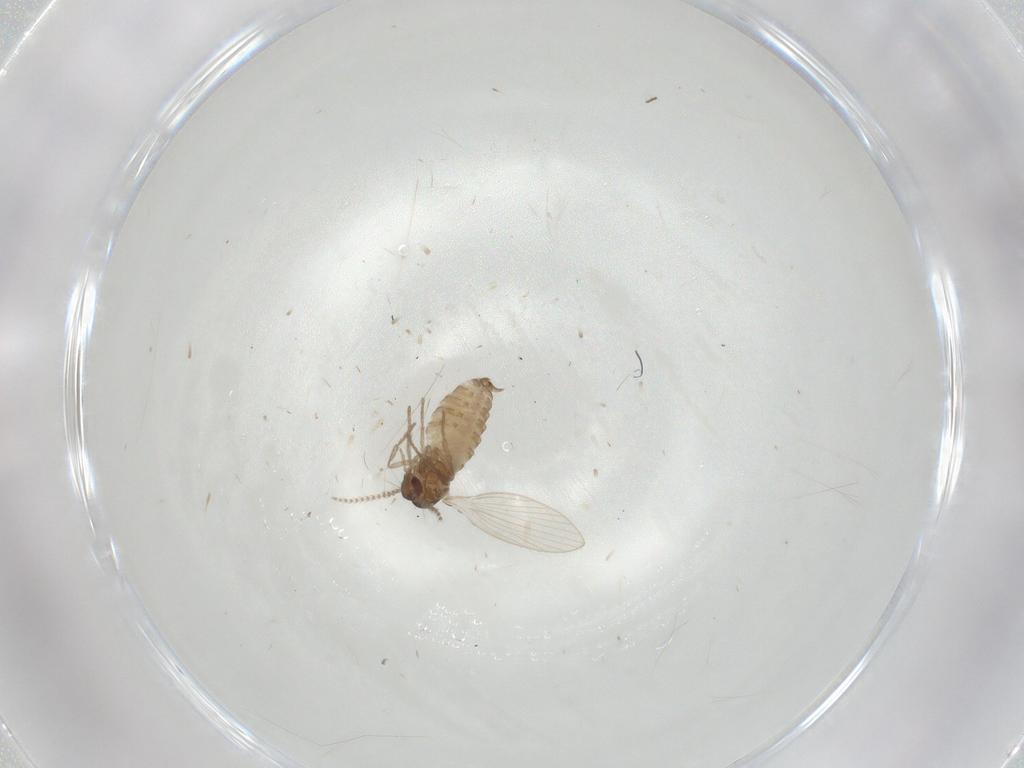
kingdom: Animalia
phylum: Arthropoda
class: Insecta
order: Diptera
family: Psychodidae
